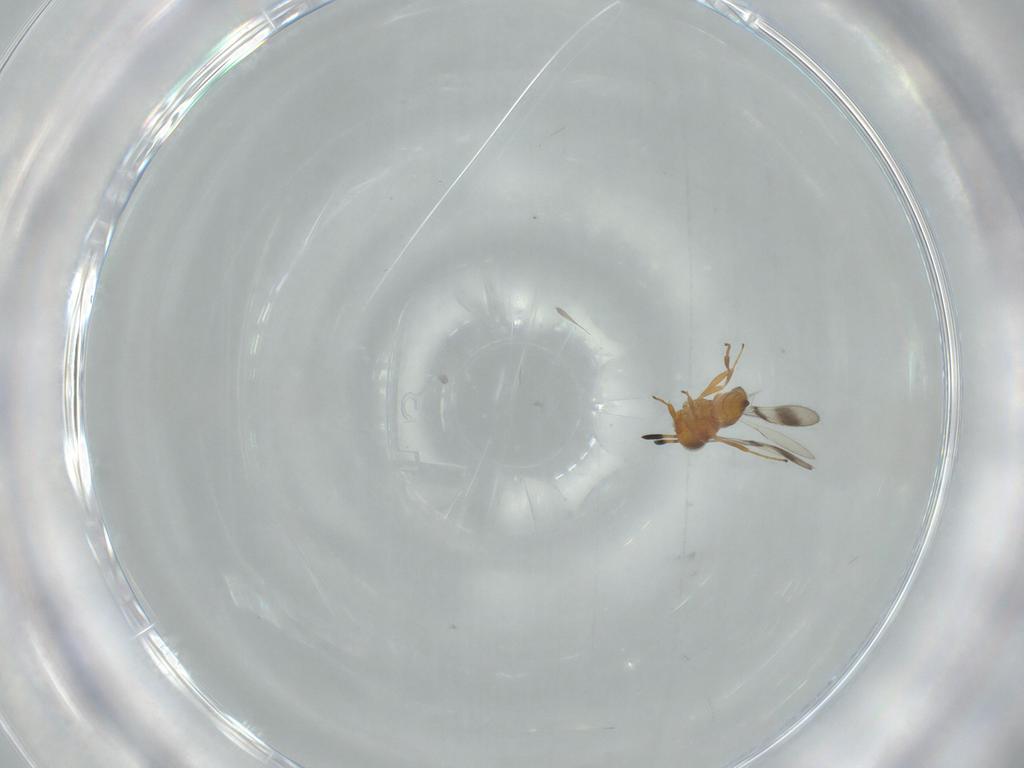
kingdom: Animalia
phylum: Arthropoda
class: Insecta
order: Hymenoptera
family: Scelionidae
